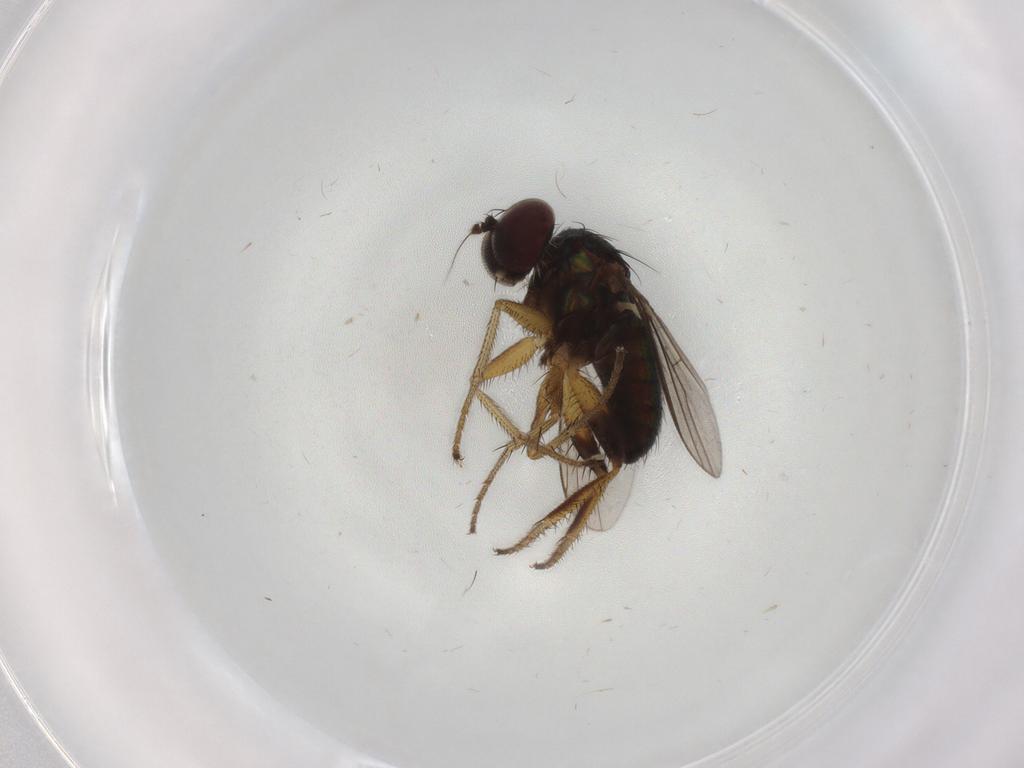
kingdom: Animalia
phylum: Arthropoda
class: Insecta
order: Diptera
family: Dolichopodidae
